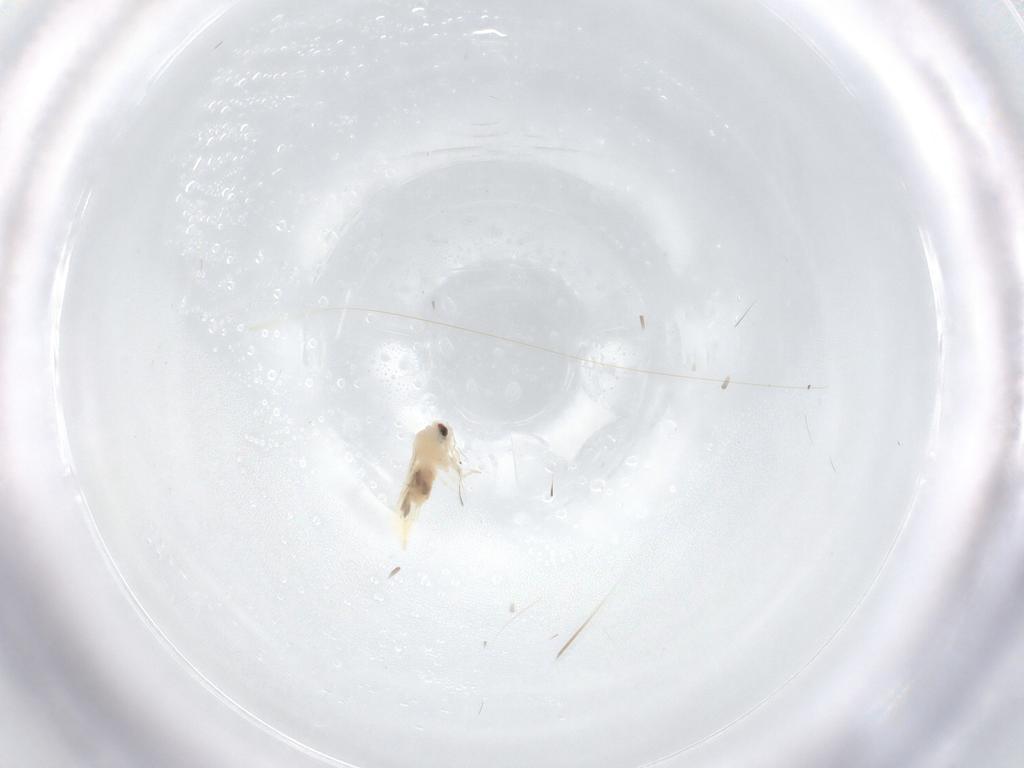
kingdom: Animalia
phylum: Arthropoda
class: Insecta
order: Hemiptera
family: Aleyrodidae
